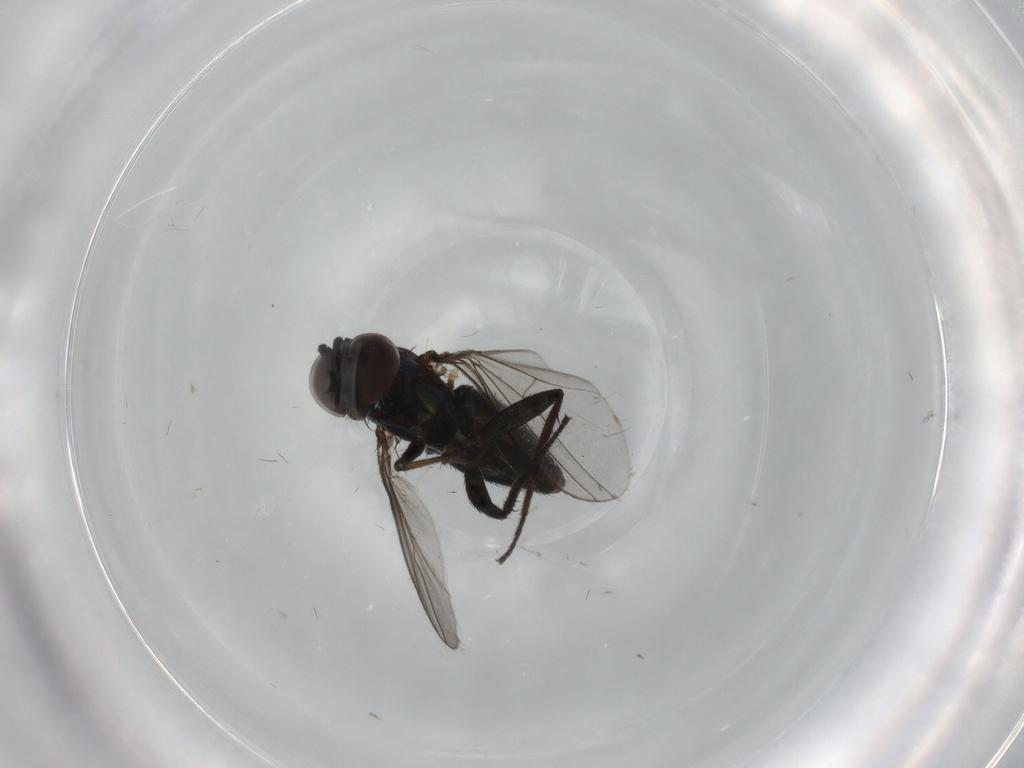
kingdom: Animalia
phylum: Arthropoda
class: Insecta
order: Diptera
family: Dolichopodidae
